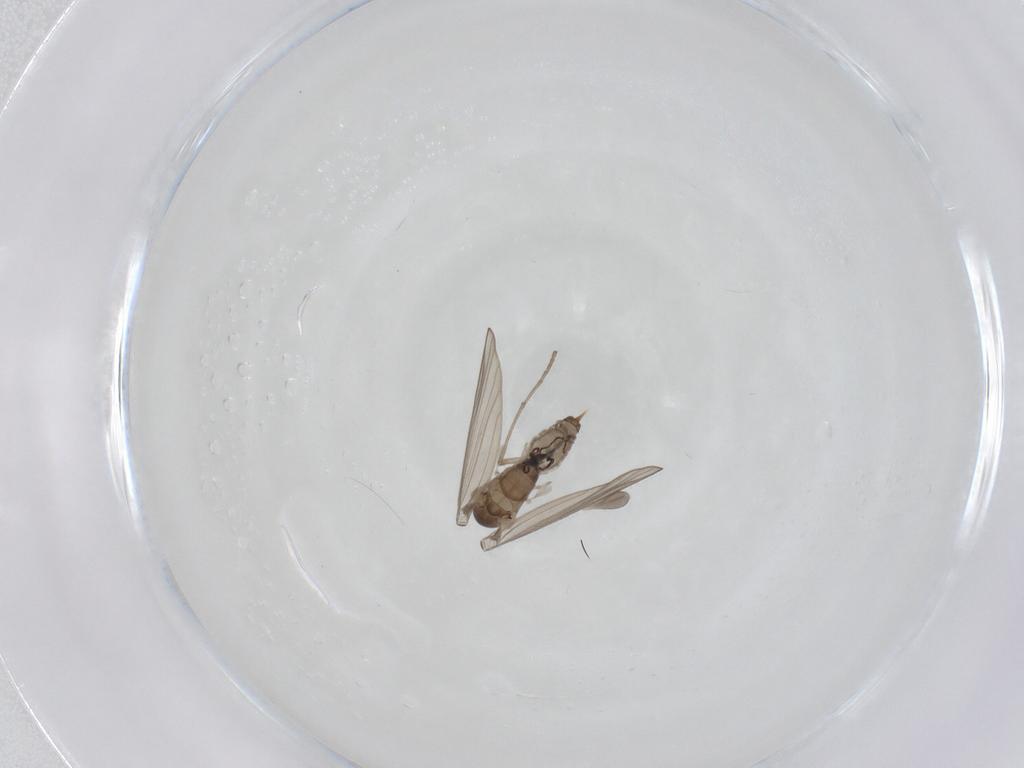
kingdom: Animalia
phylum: Arthropoda
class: Insecta
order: Diptera
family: Psychodidae
